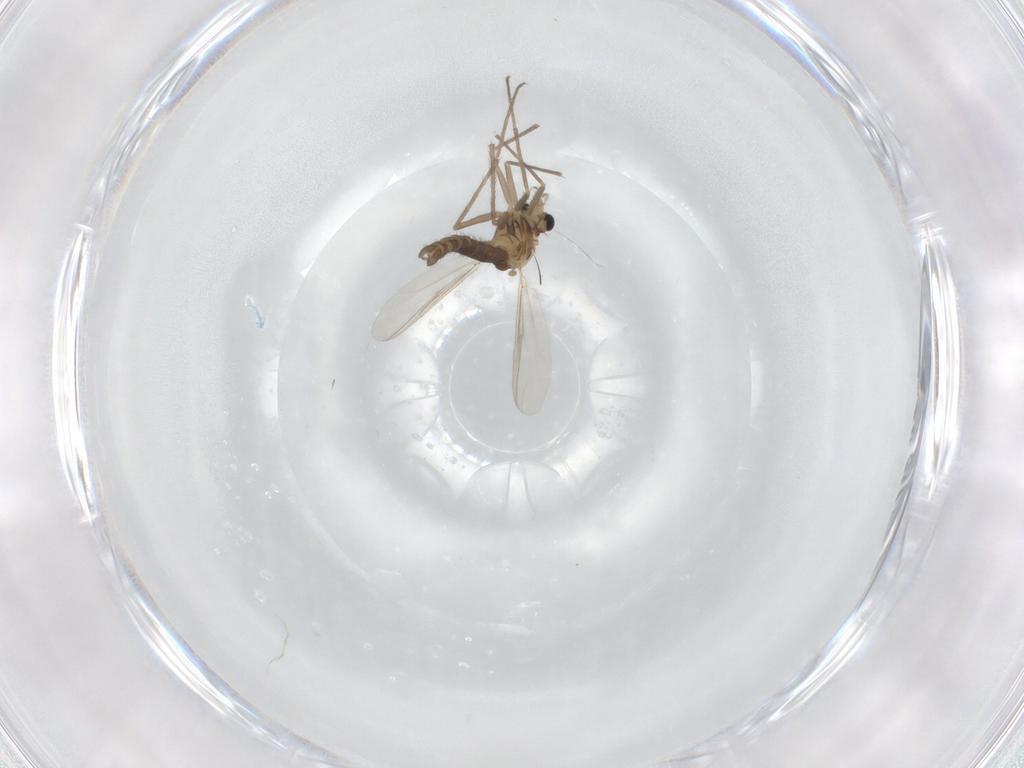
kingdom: Animalia
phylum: Arthropoda
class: Insecta
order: Diptera
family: Chironomidae
